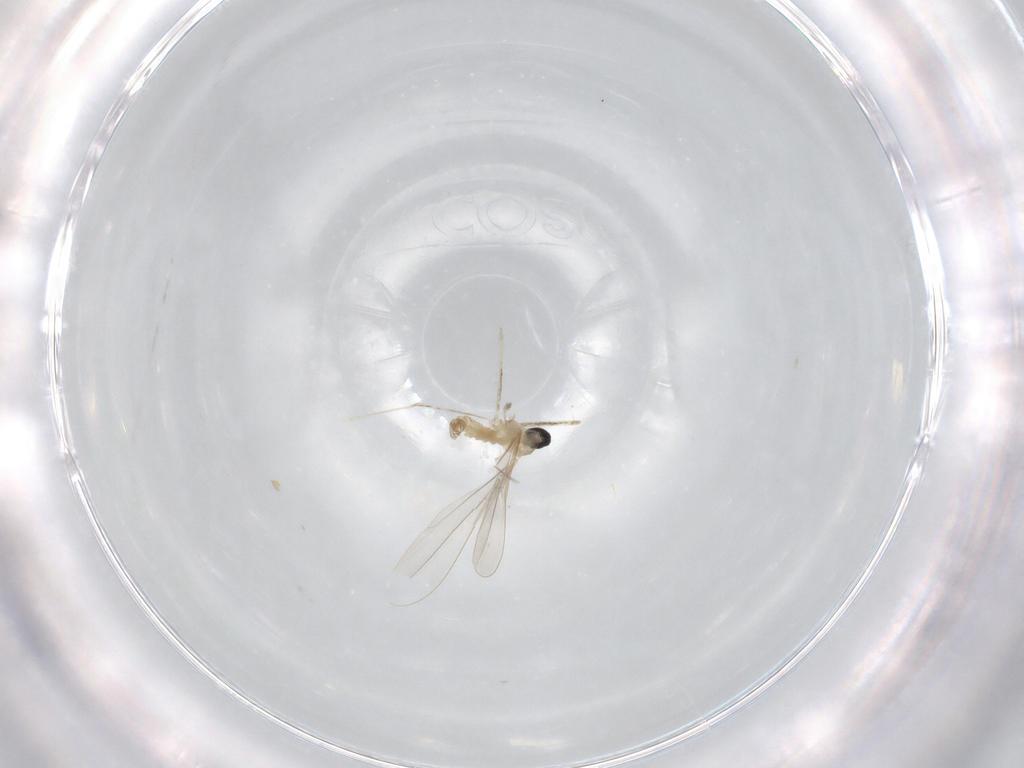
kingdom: Animalia
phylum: Arthropoda
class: Insecta
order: Diptera
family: Limoniidae
